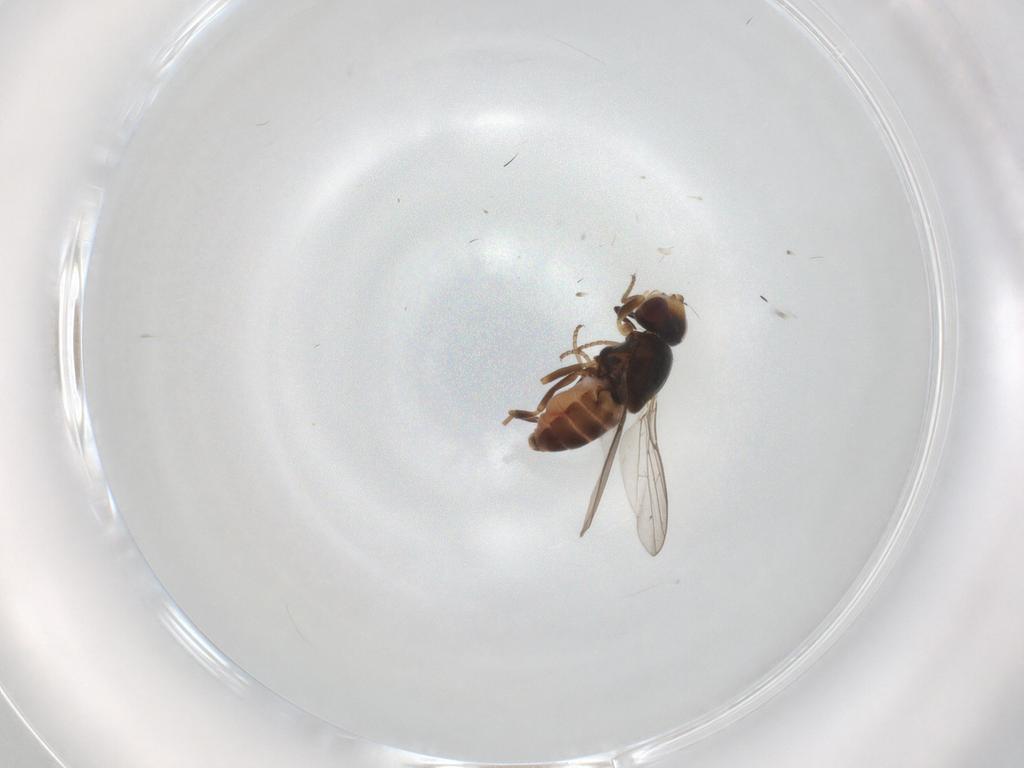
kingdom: Animalia
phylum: Arthropoda
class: Insecta
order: Diptera
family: Chloropidae
